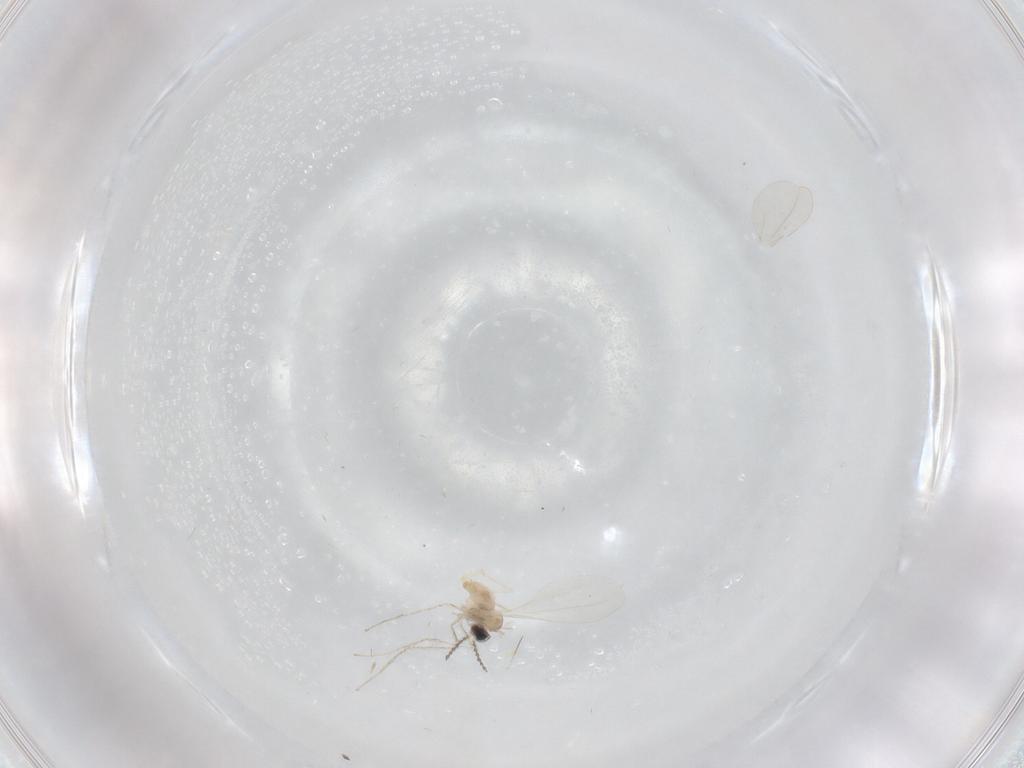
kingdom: Animalia
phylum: Arthropoda
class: Insecta
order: Diptera
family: Cecidomyiidae
